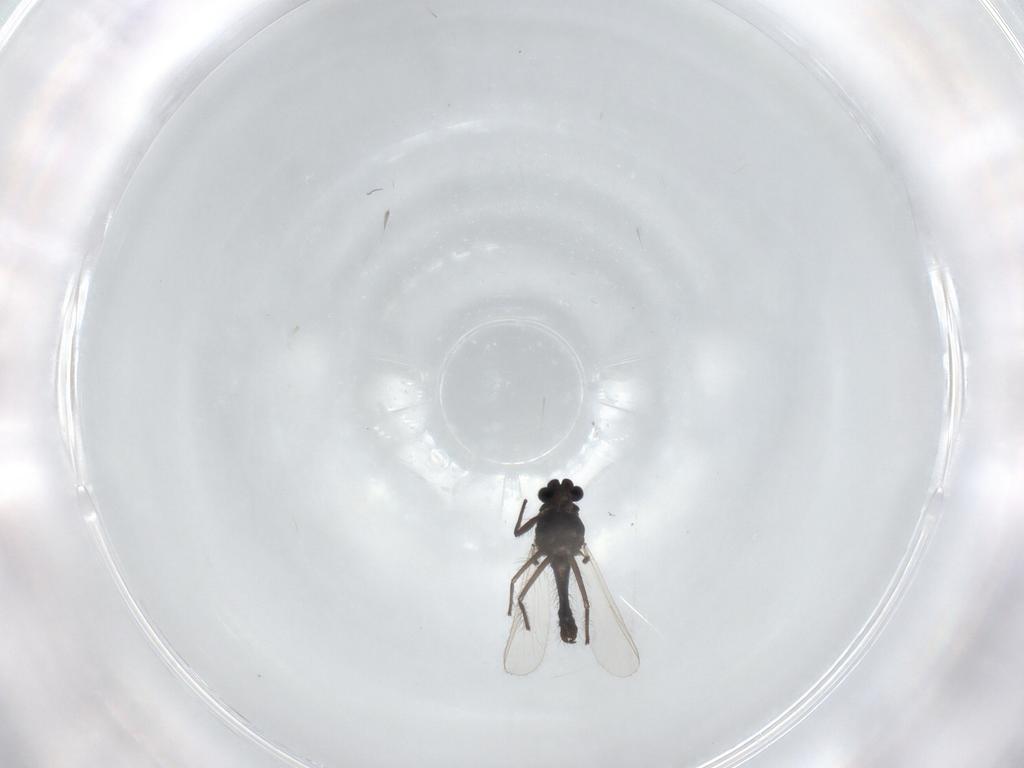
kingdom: Animalia
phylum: Arthropoda
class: Insecta
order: Diptera
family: Chironomidae
